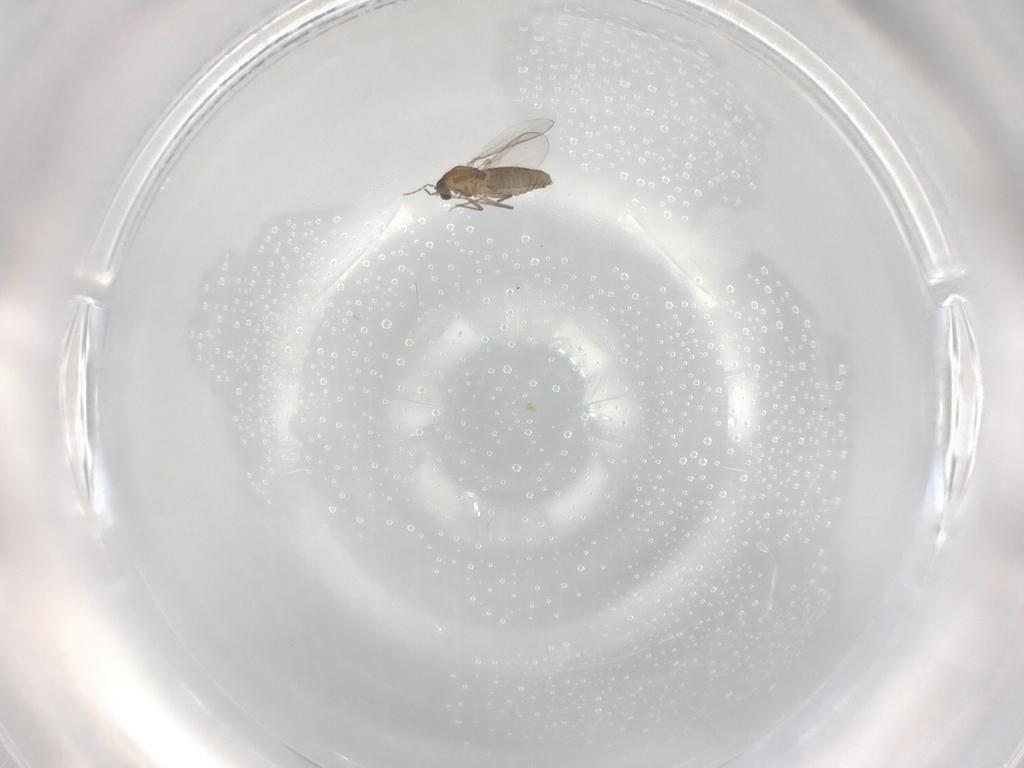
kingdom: Animalia
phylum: Arthropoda
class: Insecta
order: Diptera
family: Chironomidae
